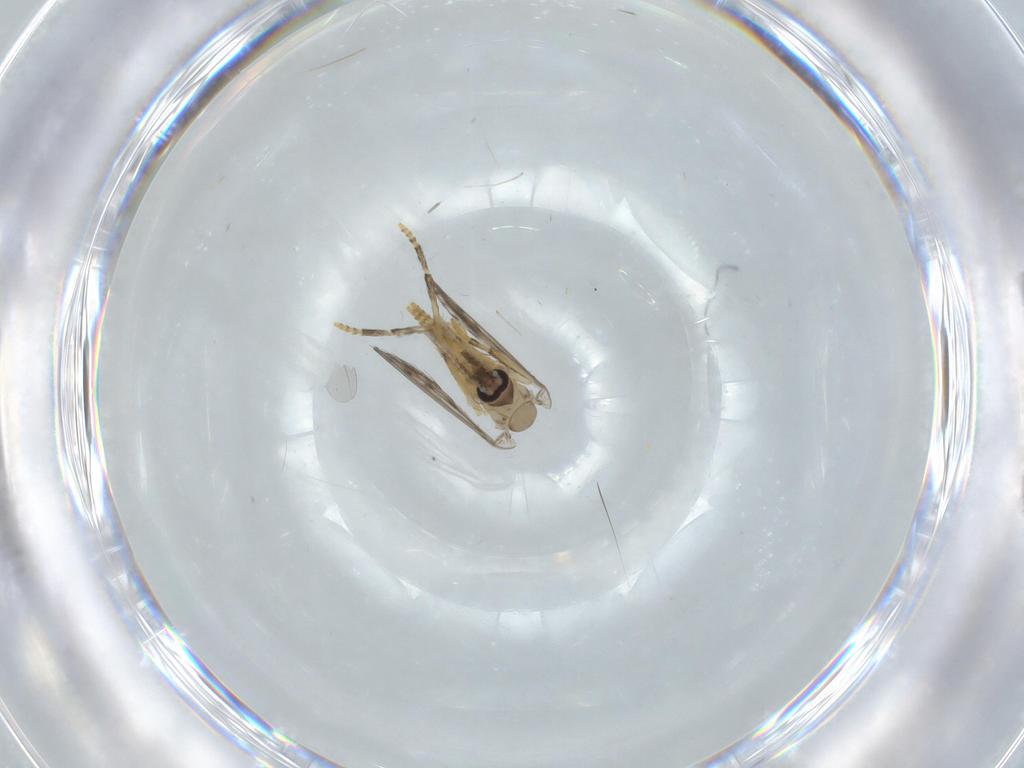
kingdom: Animalia
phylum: Arthropoda
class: Insecta
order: Diptera
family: Psychodidae
